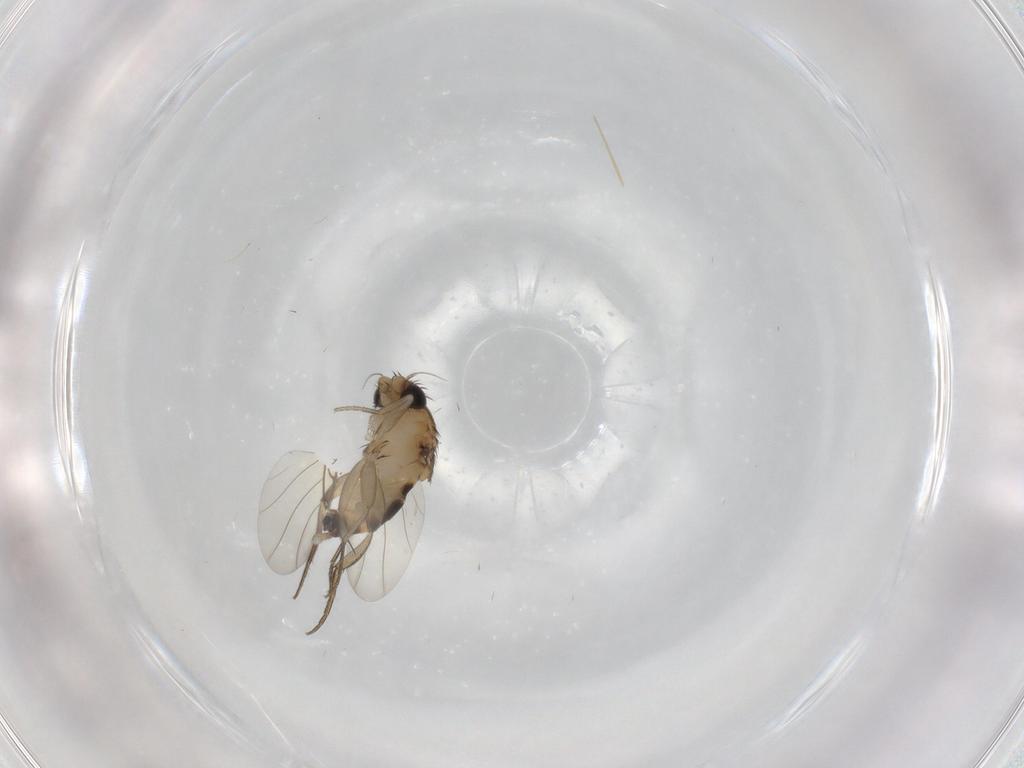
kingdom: Animalia
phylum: Arthropoda
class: Insecta
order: Diptera
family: Phoridae
